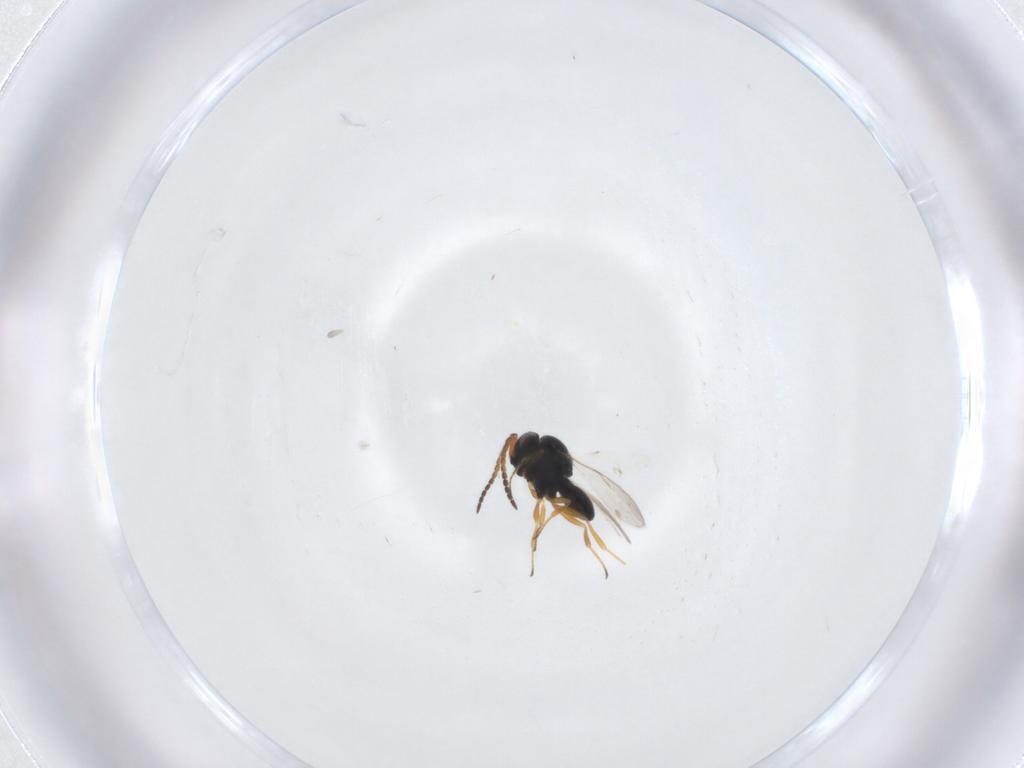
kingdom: Animalia
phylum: Arthropoda
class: Insecta
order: Hymenoptera
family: Scelionidae
